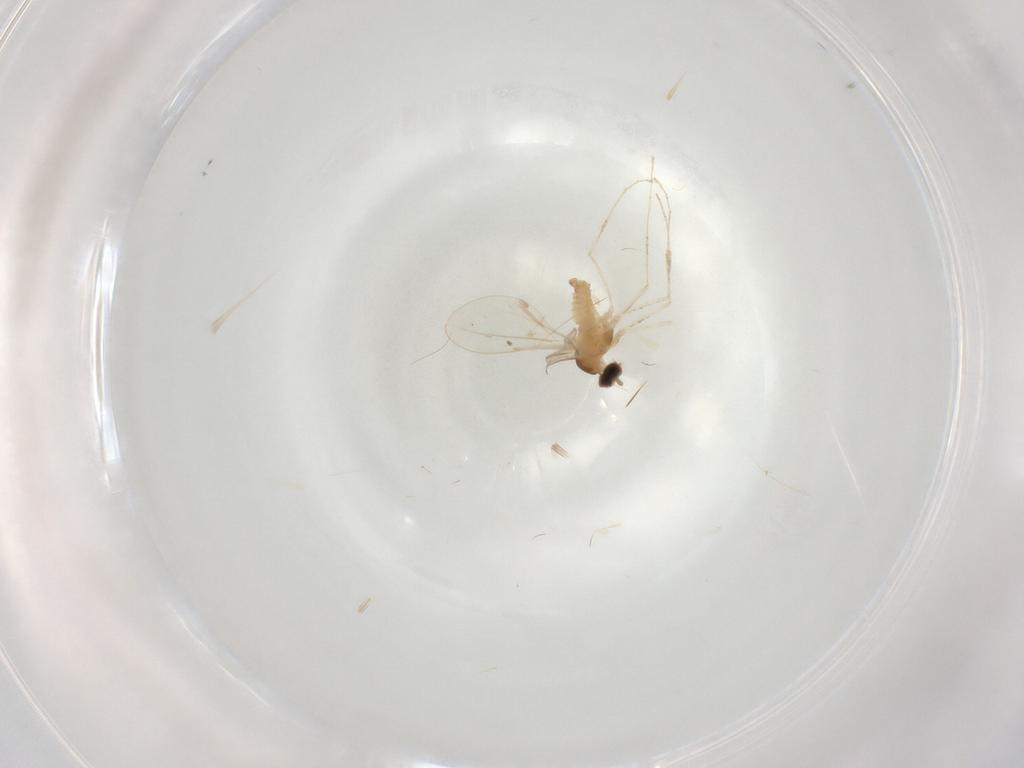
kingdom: Animalia
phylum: Arthropoda
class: Insecta
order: Diptera
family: Cecidomyiidae
